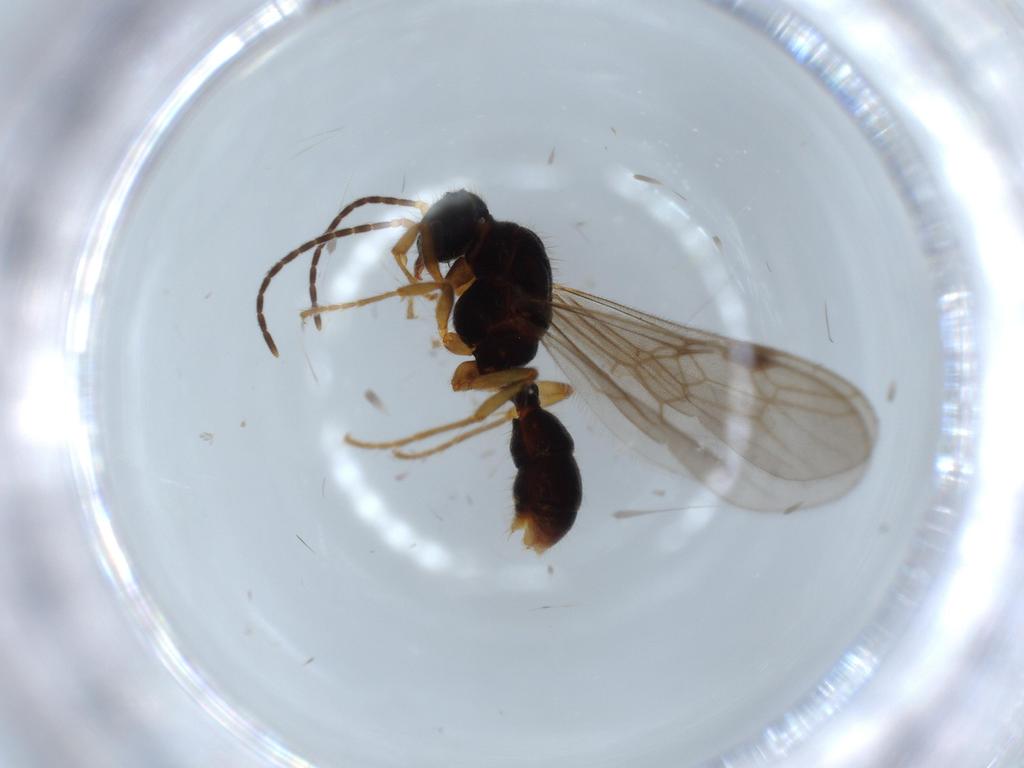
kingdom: Animalia
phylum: Arthropoda
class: Insecta
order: Hymenoptera
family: Formicidae
